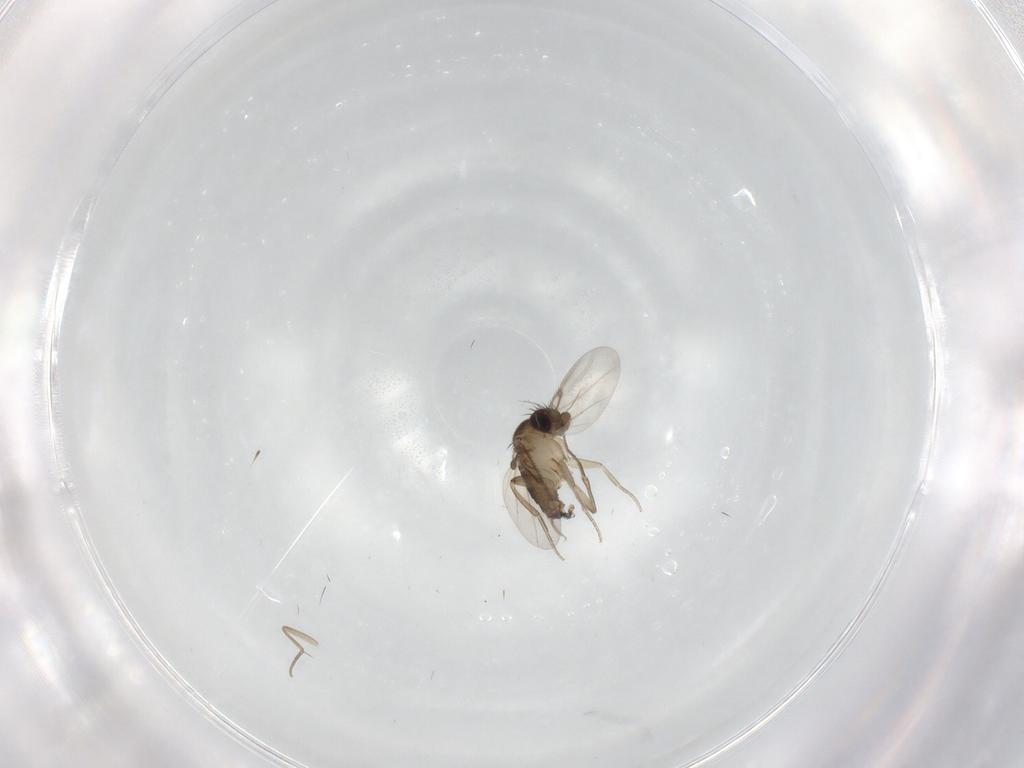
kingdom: Animalia
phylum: Arthropoda
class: Insecta
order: Diptera
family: Phoridae
